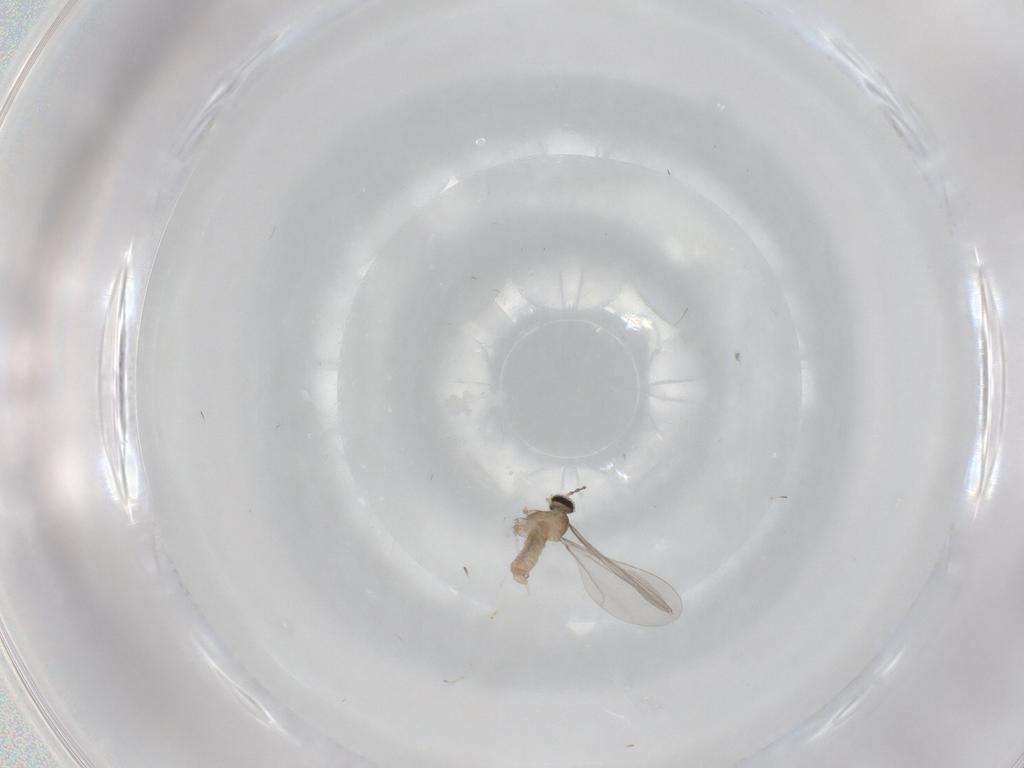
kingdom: Animalia
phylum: Arthropoda
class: Insecta
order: Diptera
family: Cecidomyiidae
